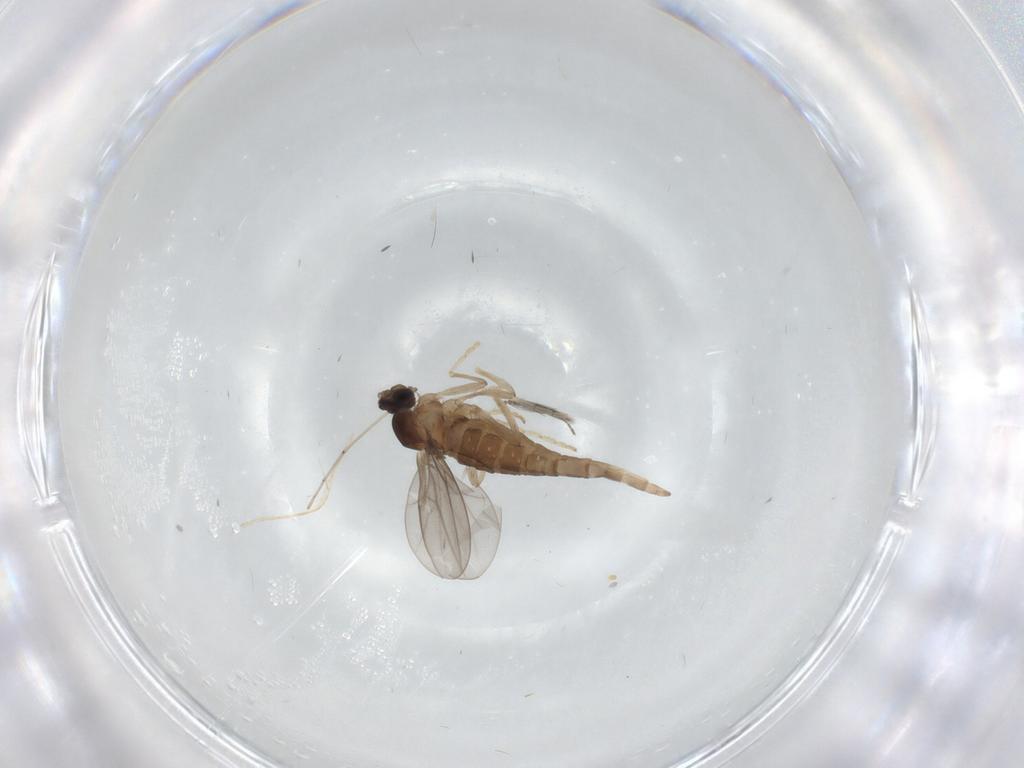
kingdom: Animalia
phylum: Arthropoda
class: Insecta
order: Diptera
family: Cecidomyiidae
